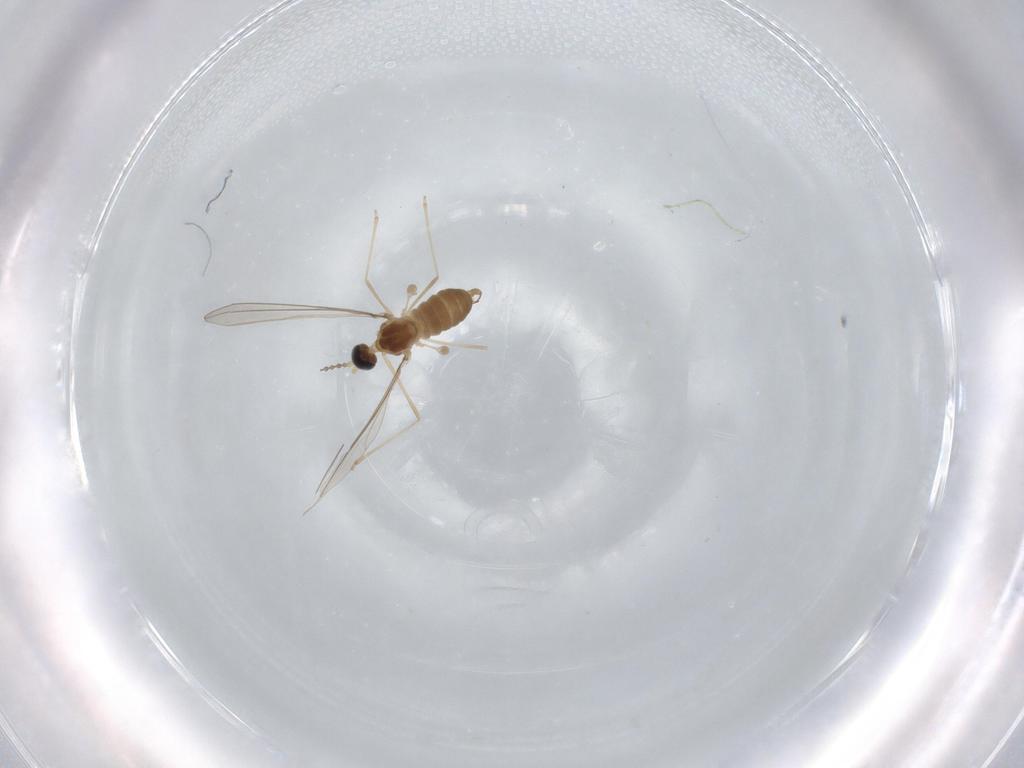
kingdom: Animalia
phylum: Arthropoda
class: Insecta
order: Diptera
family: Cecidomyiidae
